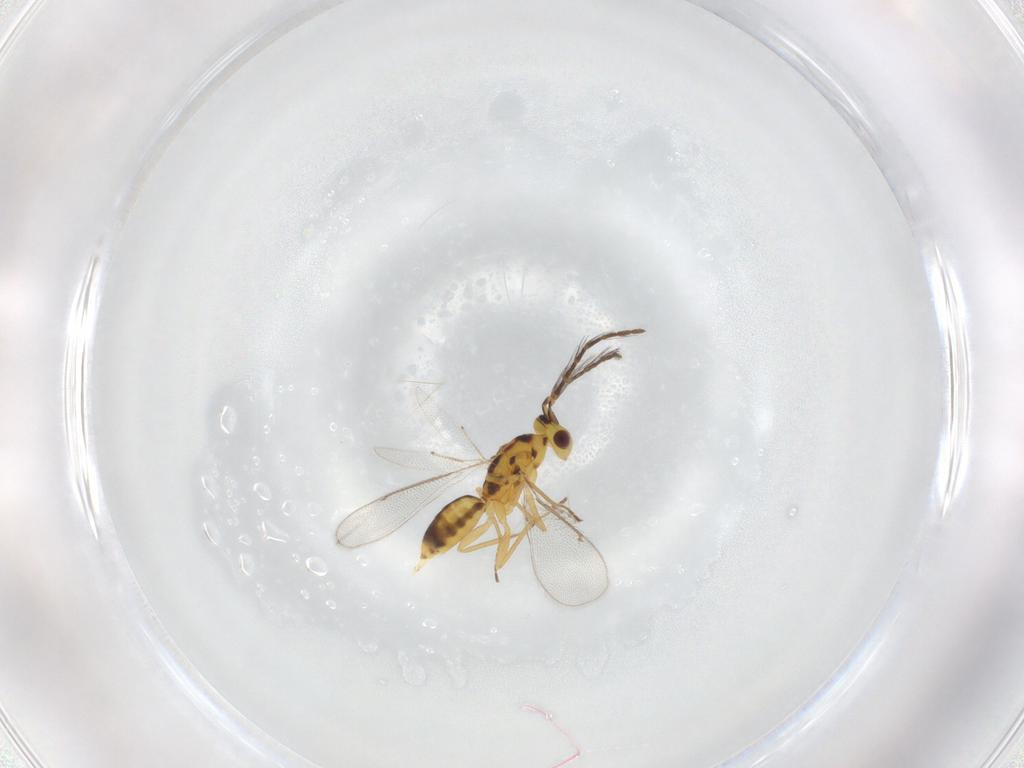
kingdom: Animalia
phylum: Arthropoda
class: Insecta
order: Hymenoptera
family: Eulophidae
